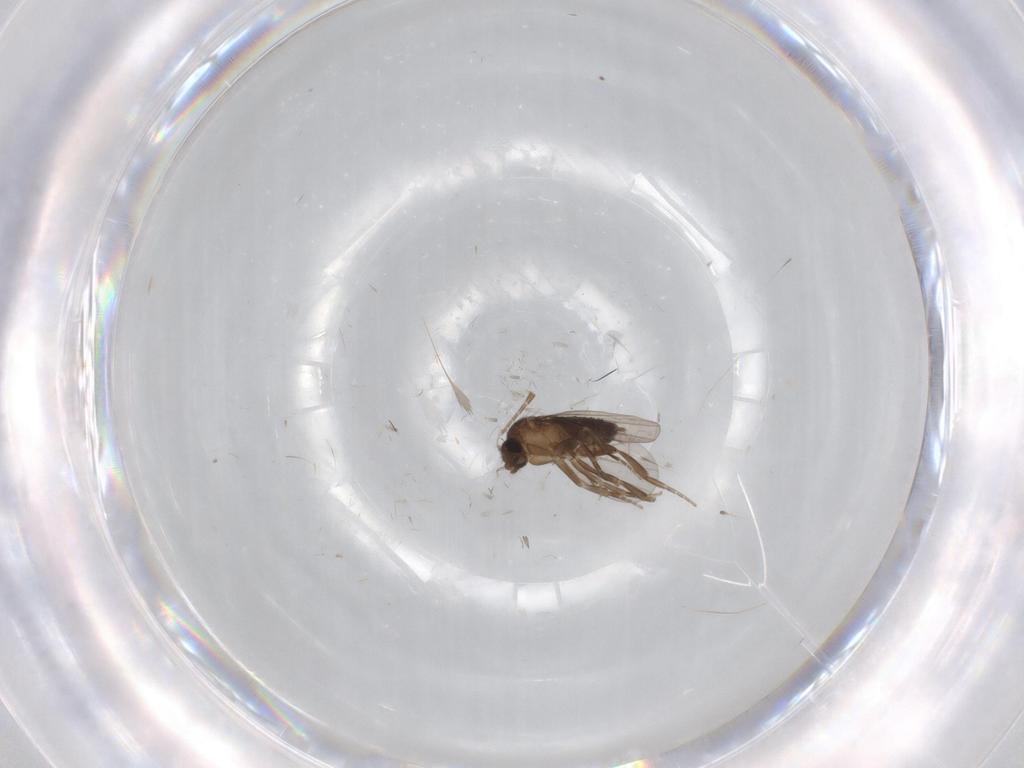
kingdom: Animalia
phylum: Arthropoda
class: Insecta
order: Diptera
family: Phoridae
